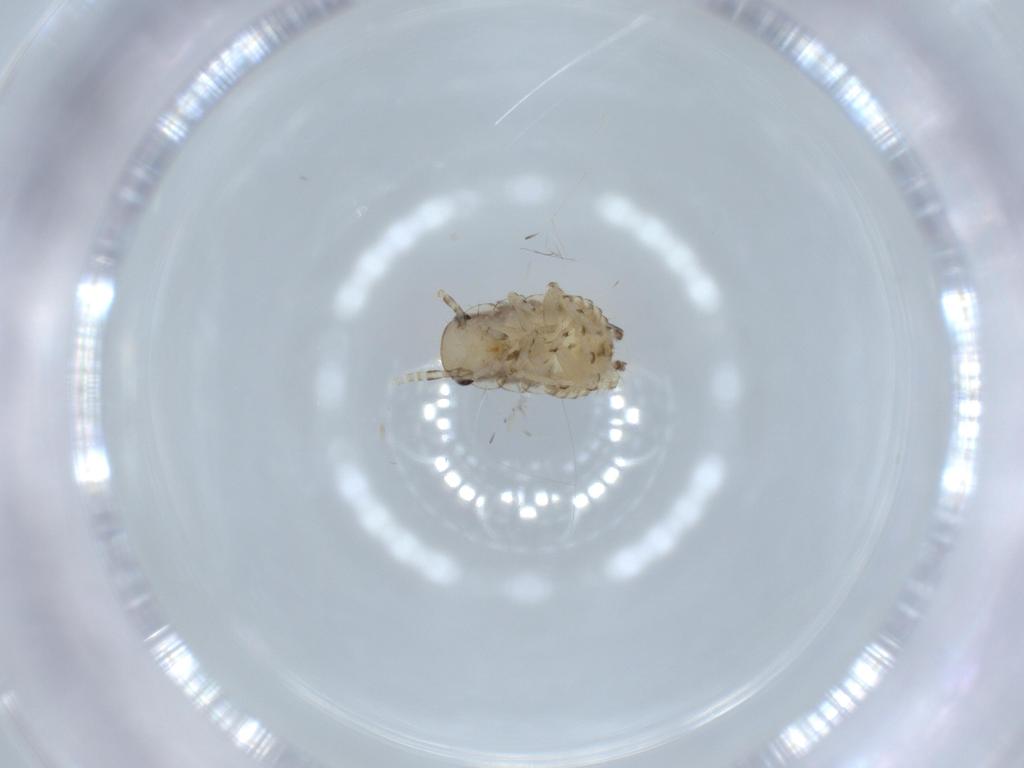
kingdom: Animalia
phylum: Arthropoda
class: Insecta
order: Blattodea
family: Ectobiidae
